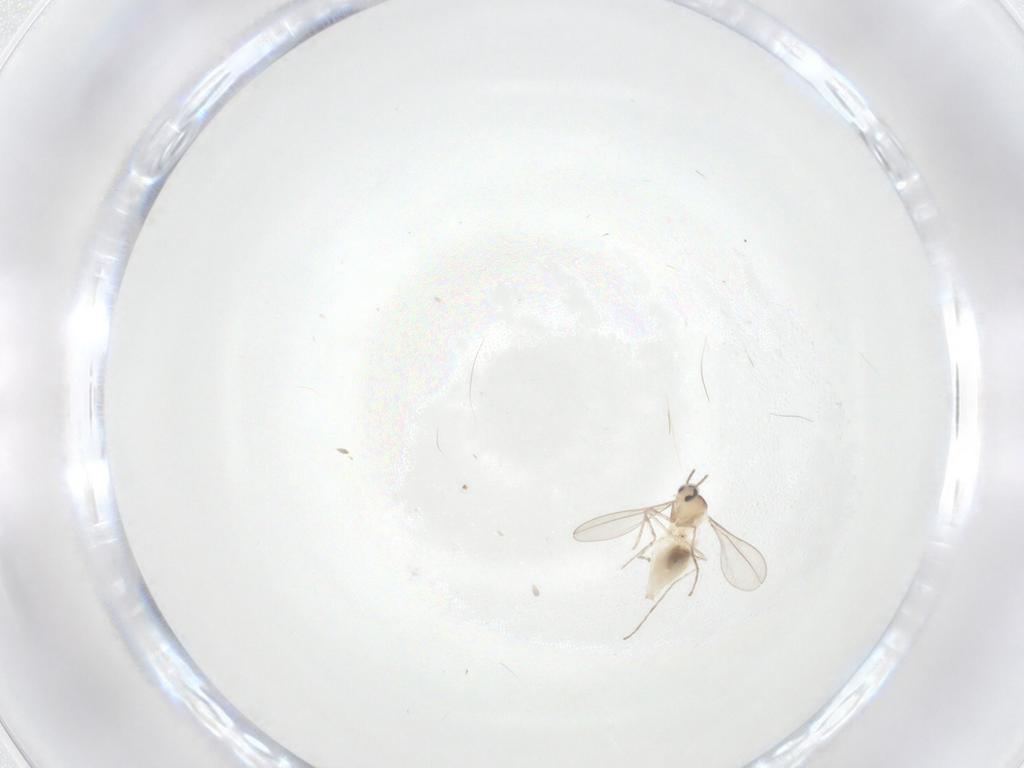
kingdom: Animalia
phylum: Arthropoda
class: Insecta
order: Diptera
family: Cecidomyiidae
